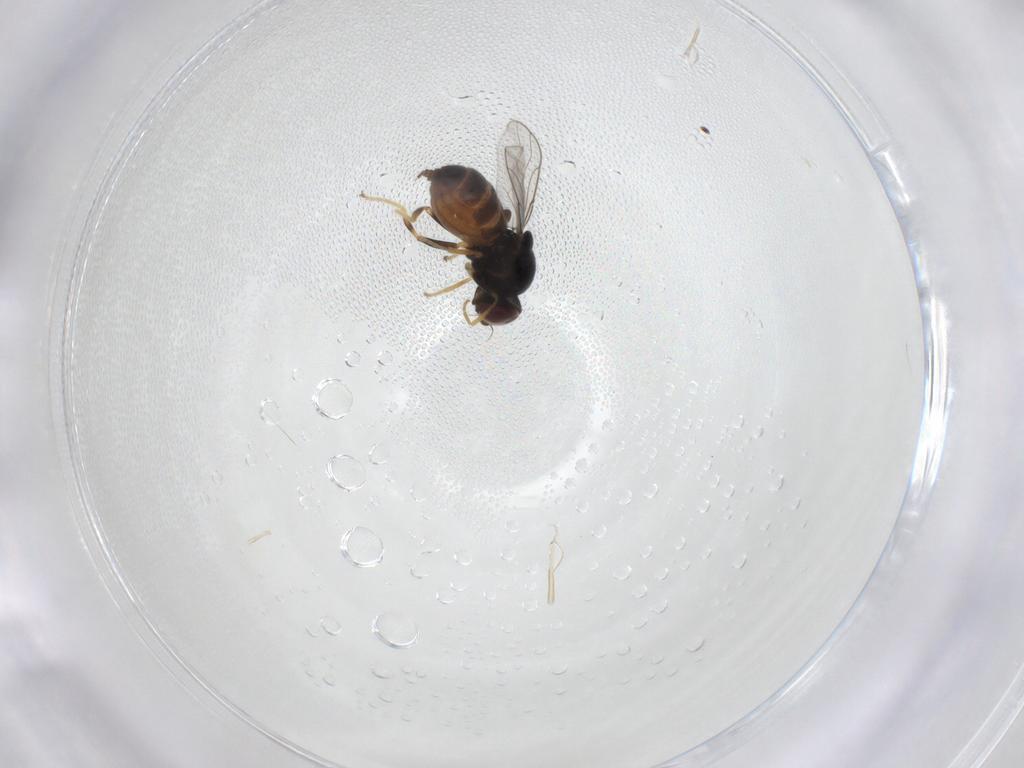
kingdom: Animalia
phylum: Arthropoda
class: Insecta
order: Diptera
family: Chloropidae
